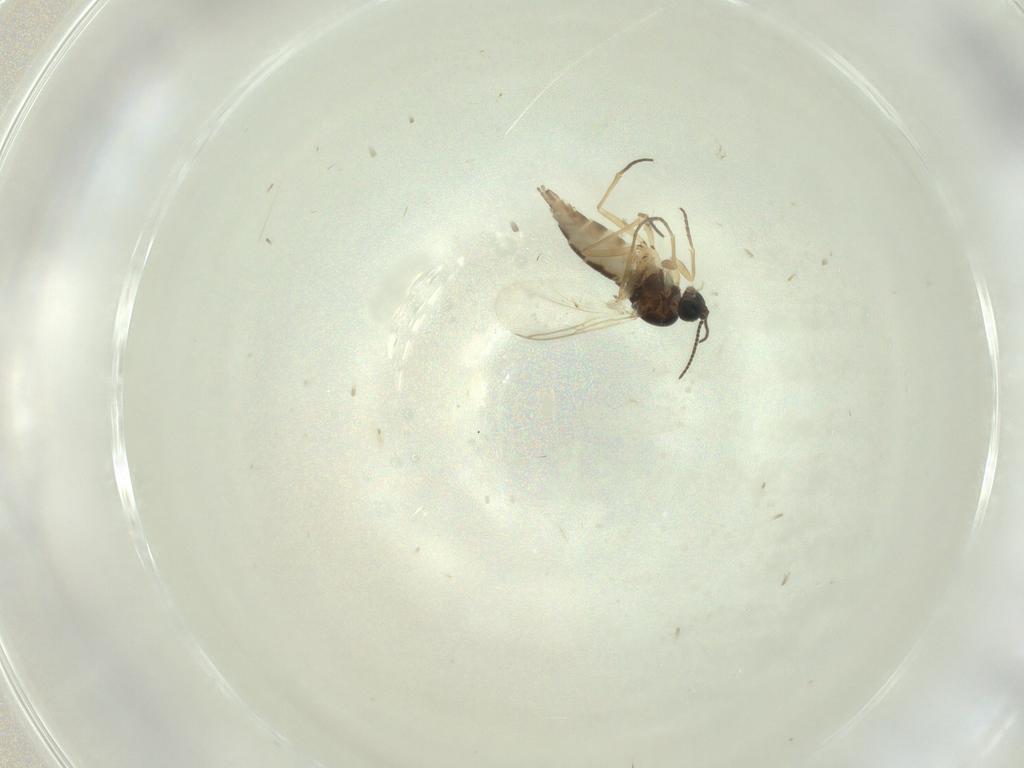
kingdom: Animalia
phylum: Arthropoda
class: Insecta
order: Diptera
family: Sciaridae
